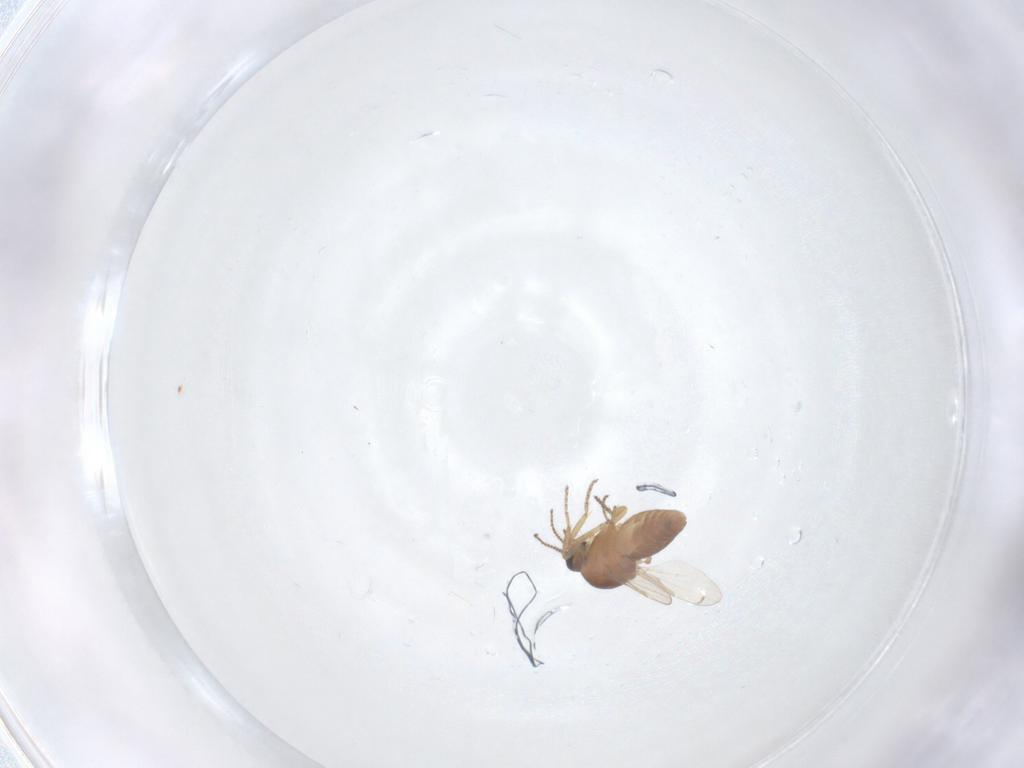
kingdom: Animalia
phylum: Arthropoda
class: Insecta
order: Diptera
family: Ceratopogonidae
